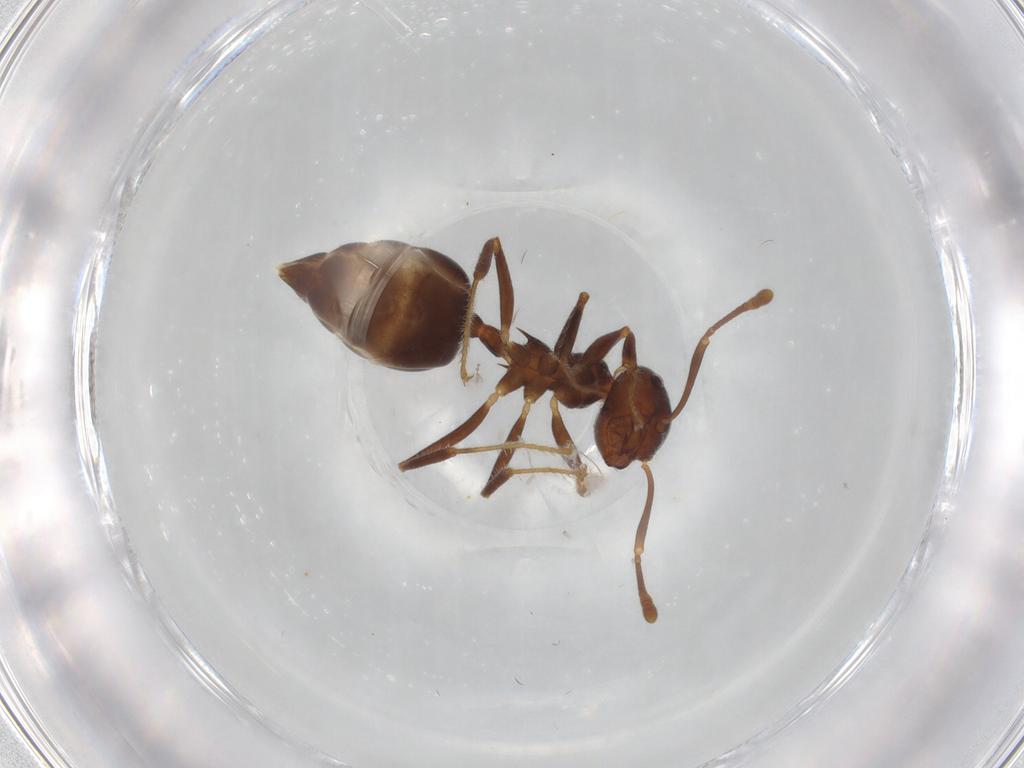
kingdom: Animalia
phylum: Arthropoda
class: Insecta
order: Hymenoptera
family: Formicidae
